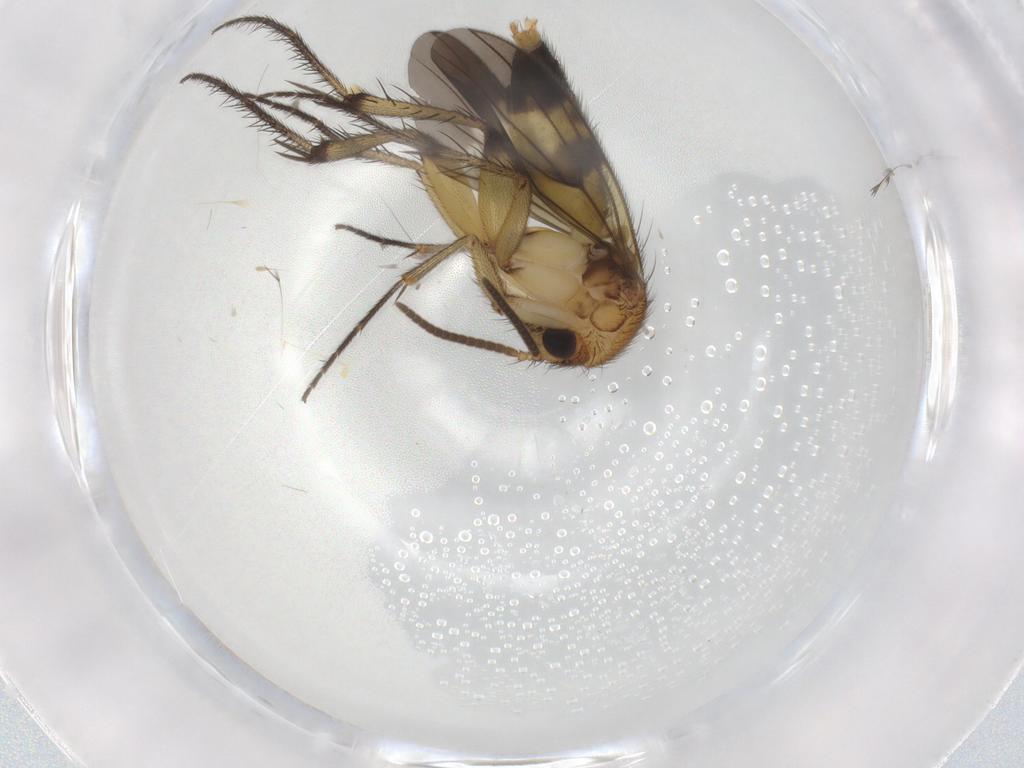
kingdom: Animalia
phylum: Arthropoda
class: Insecta
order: Diptera
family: Mycetophilidae
